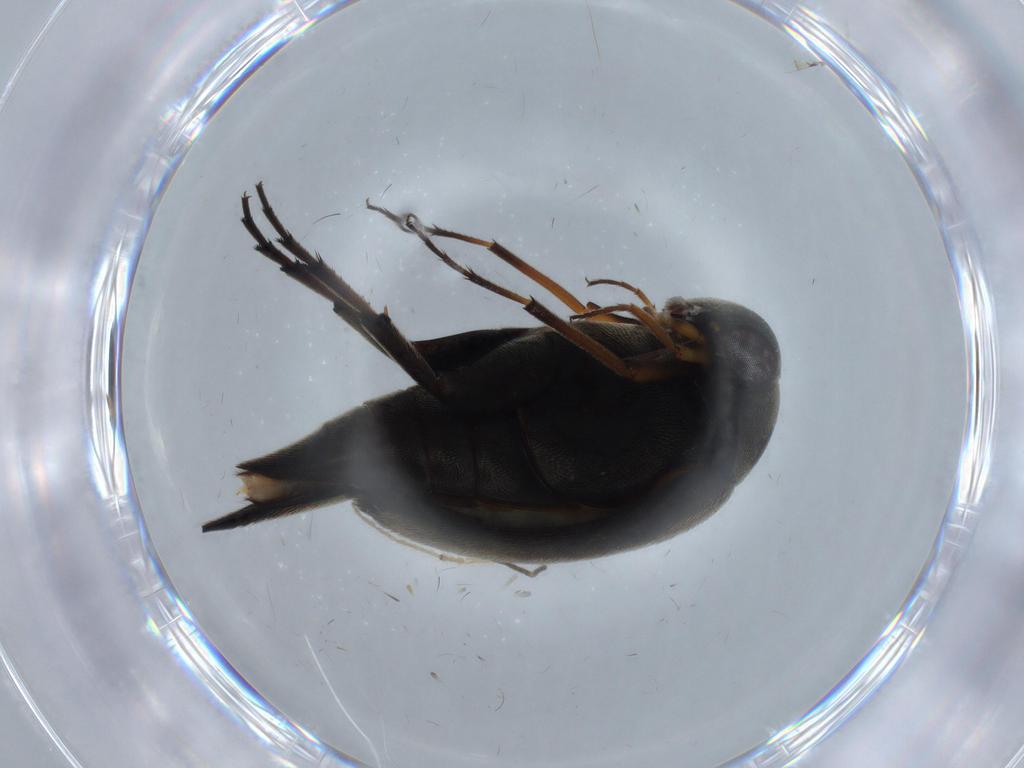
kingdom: Animalia
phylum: Arthropoda
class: Insecta
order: Coleoptera
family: Mordellidae
